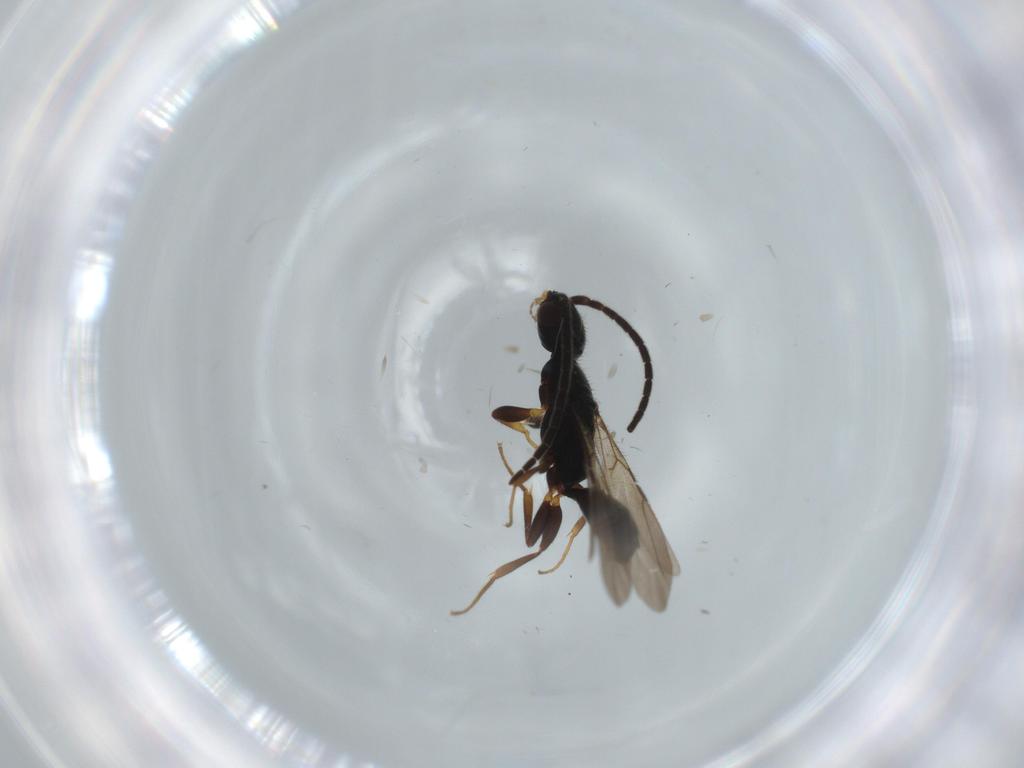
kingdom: Animalia
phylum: Arthropoda
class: Insecta
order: Hymenoptera
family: Bethylidae
